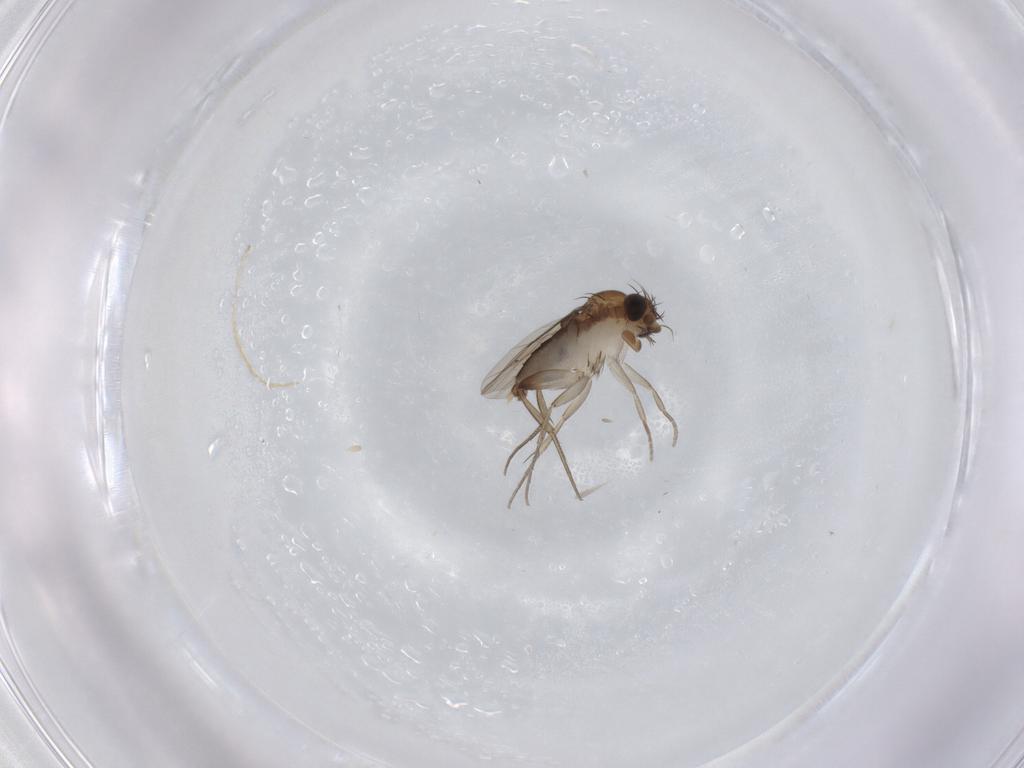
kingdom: Animalia
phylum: Arthropoda
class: Insecta
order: Diptera
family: Phoridae
